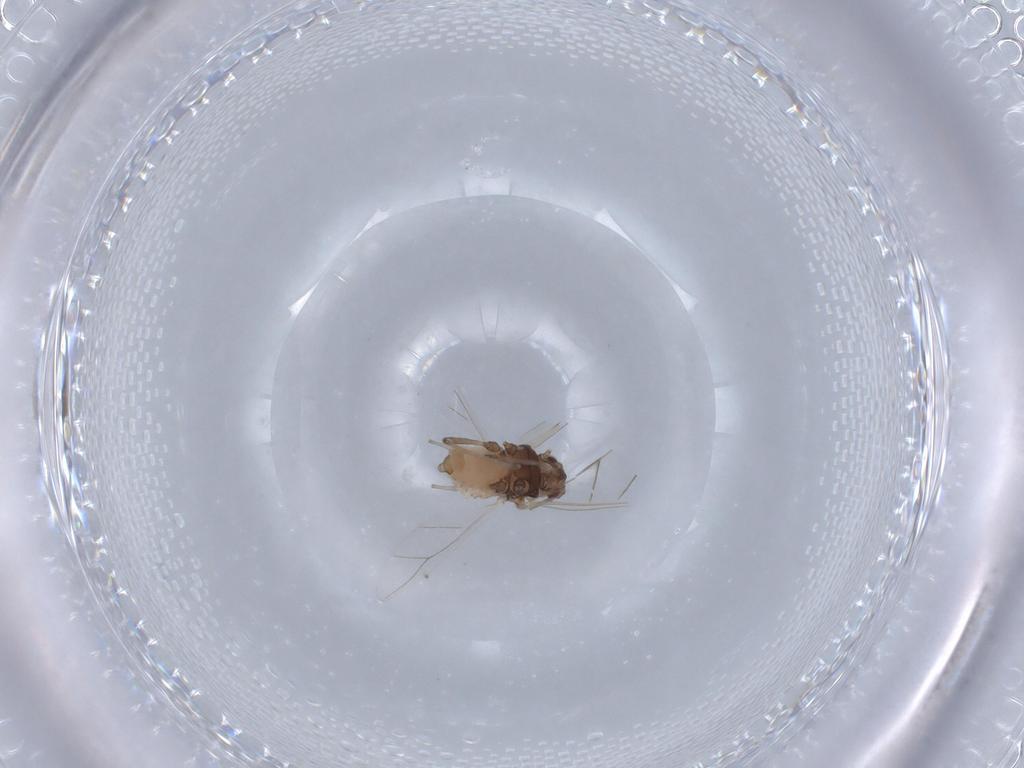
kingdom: Animalia
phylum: Arthropoda
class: Insecta
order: Hemiptera
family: Aphididae
